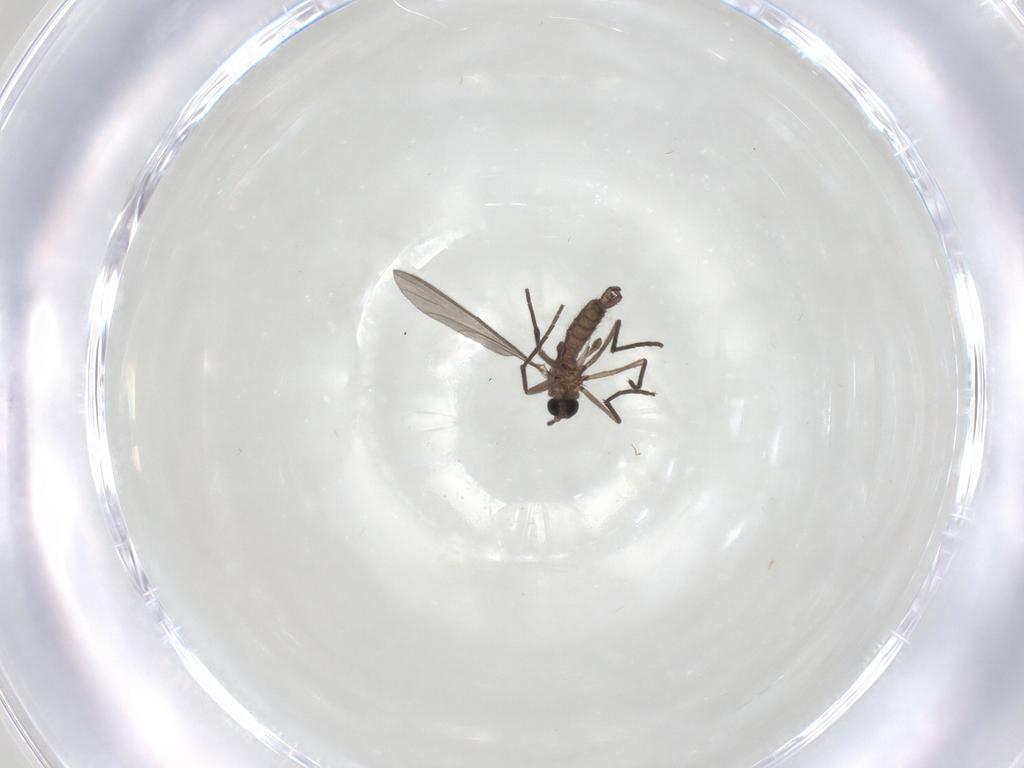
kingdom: Animalia
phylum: Arthropoda
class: Insecta
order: Diptera
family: Sciaridae
